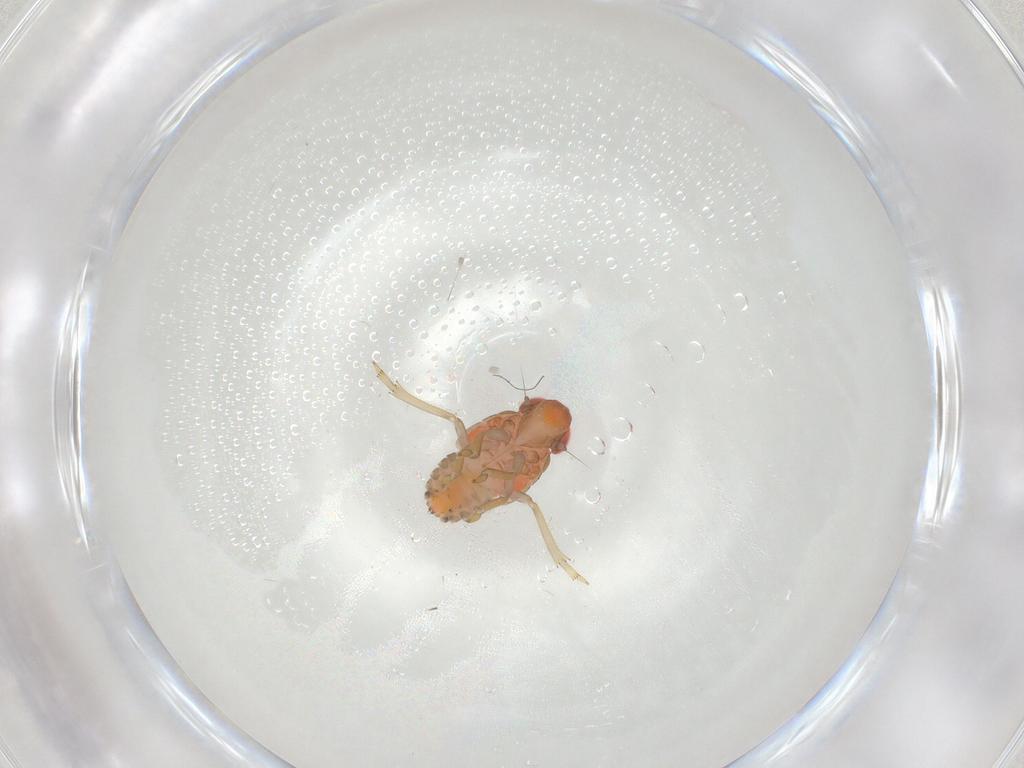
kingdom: Animalia
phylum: Arthropoda
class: Insecta
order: Hemiptera
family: Fulgoroidea_incertae_sedis
